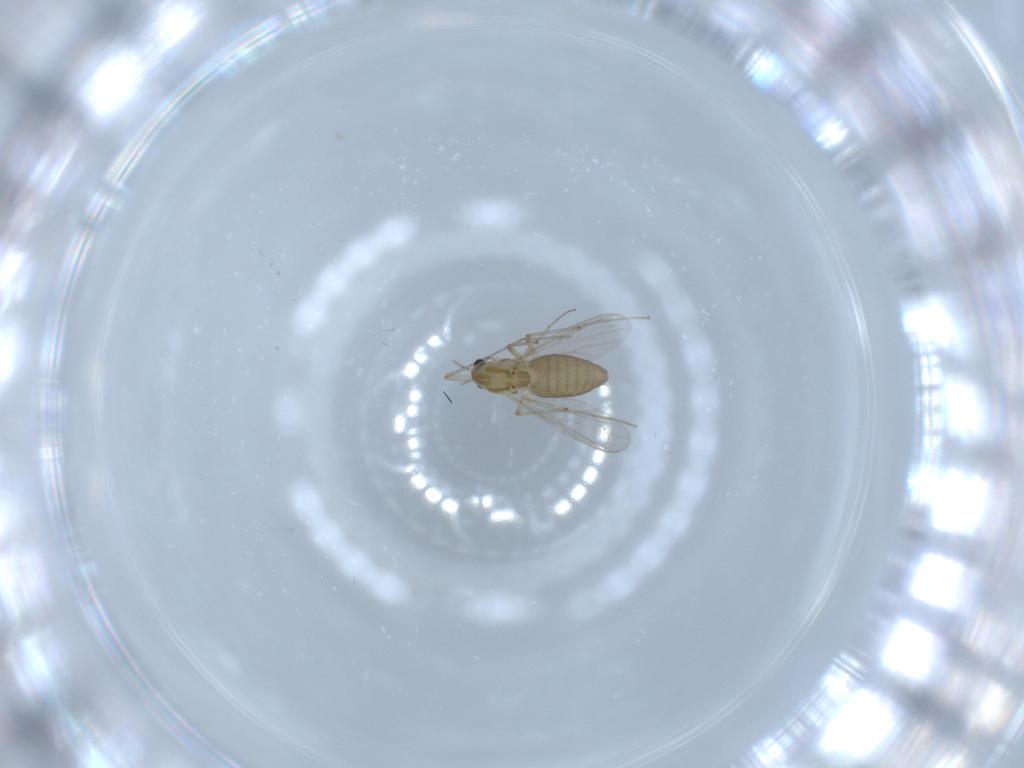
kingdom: Animalia
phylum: Arthropoda
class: Insecta
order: Diptera
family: Chironomidae
